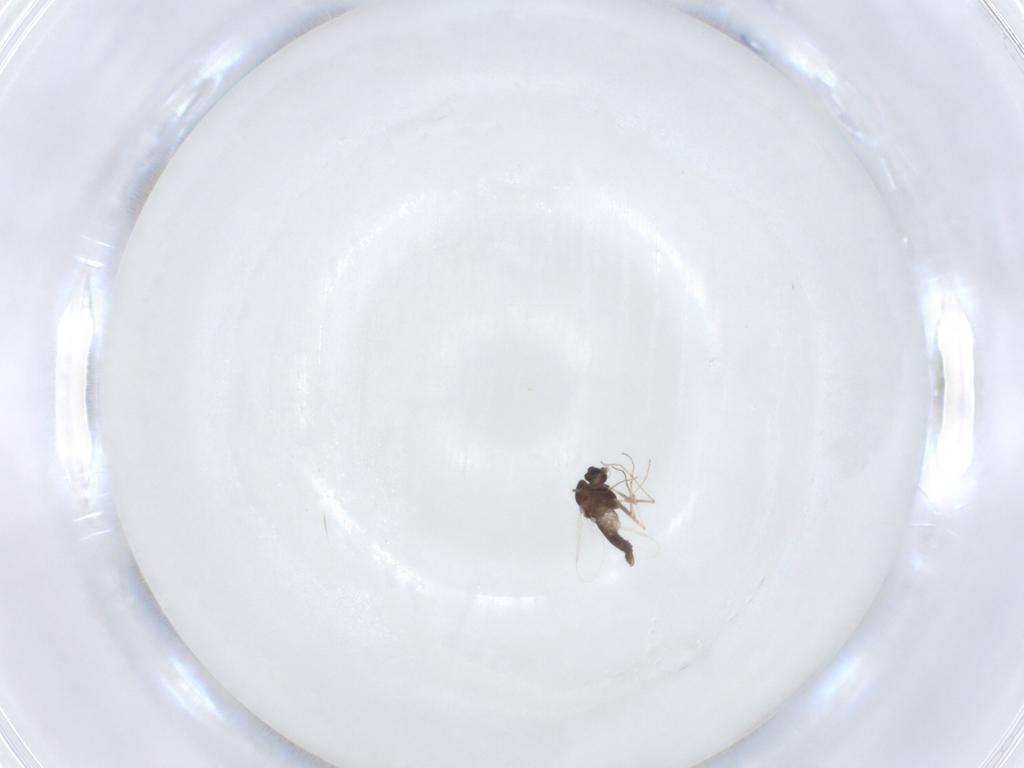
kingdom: Animalia
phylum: Arthropoda
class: Insecta
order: Diptera
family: Chironomidae
